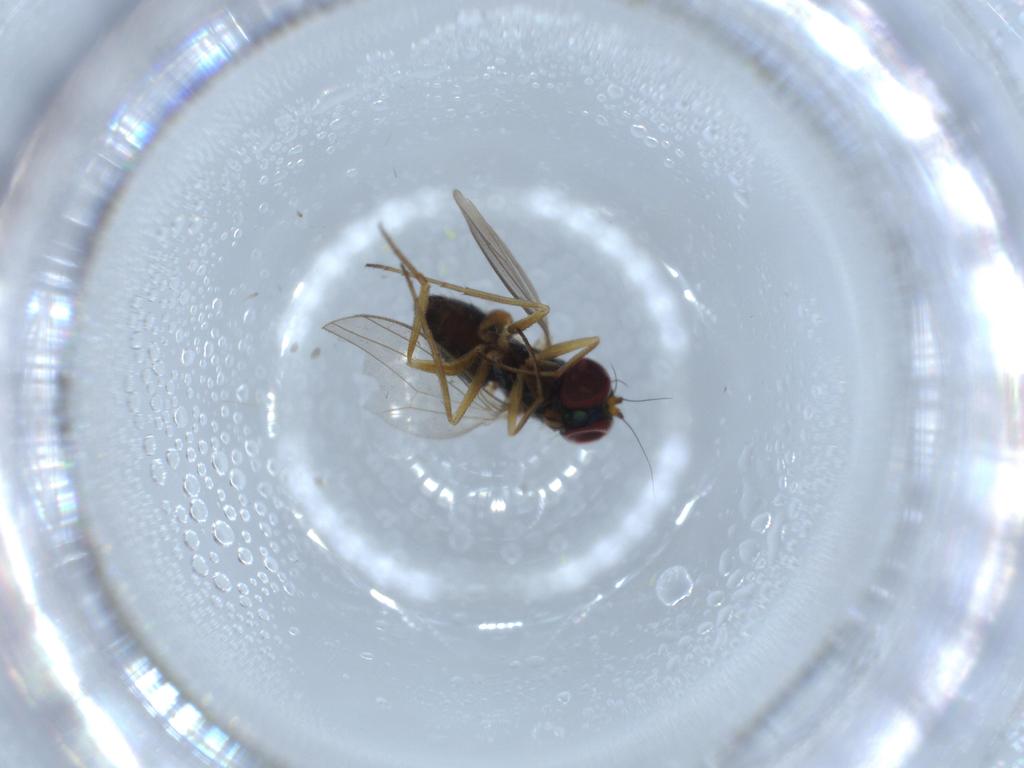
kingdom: Animalia
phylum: Arthropoda
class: Insecta
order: Diptera
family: Dolichopodidae
